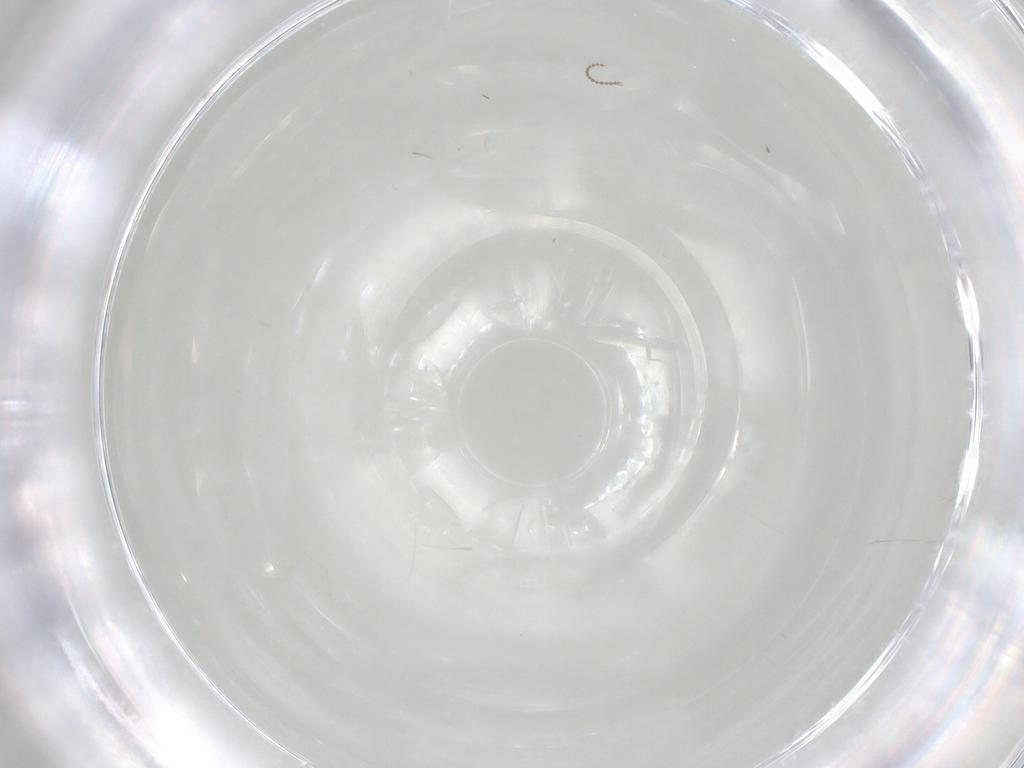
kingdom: Animalia
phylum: Arthropoda
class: Insecta
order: Diptera
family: Cecidomyiidae
